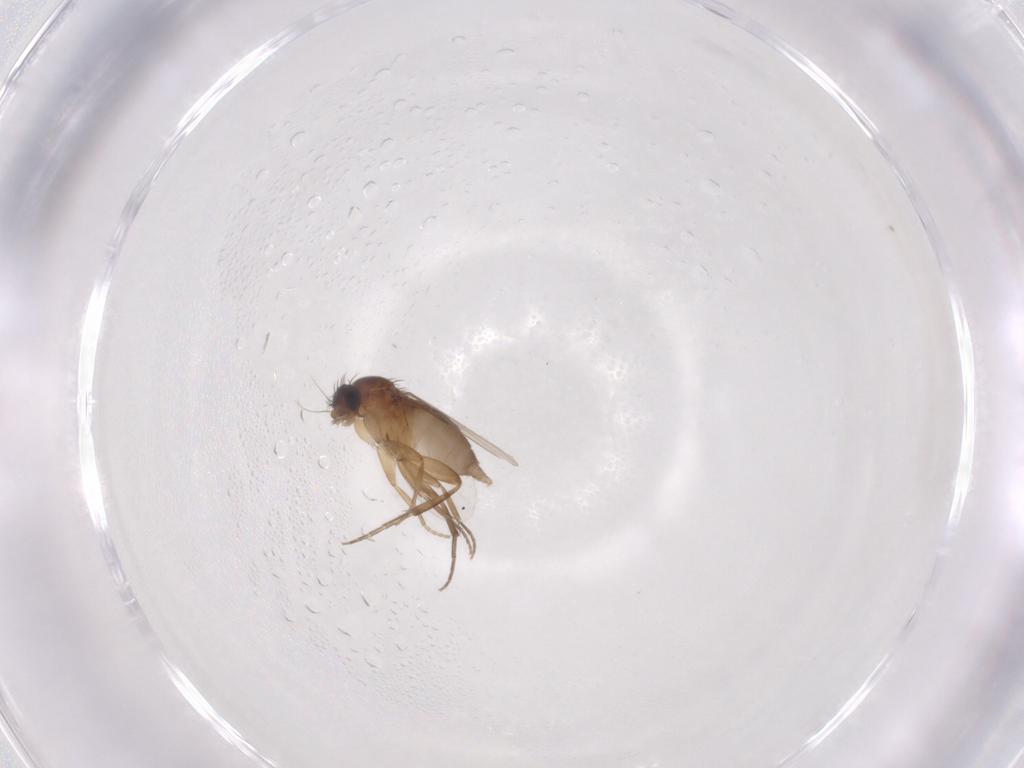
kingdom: Animalia
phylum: Arthropoda
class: Insecta
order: Diptera
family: Phoridae
